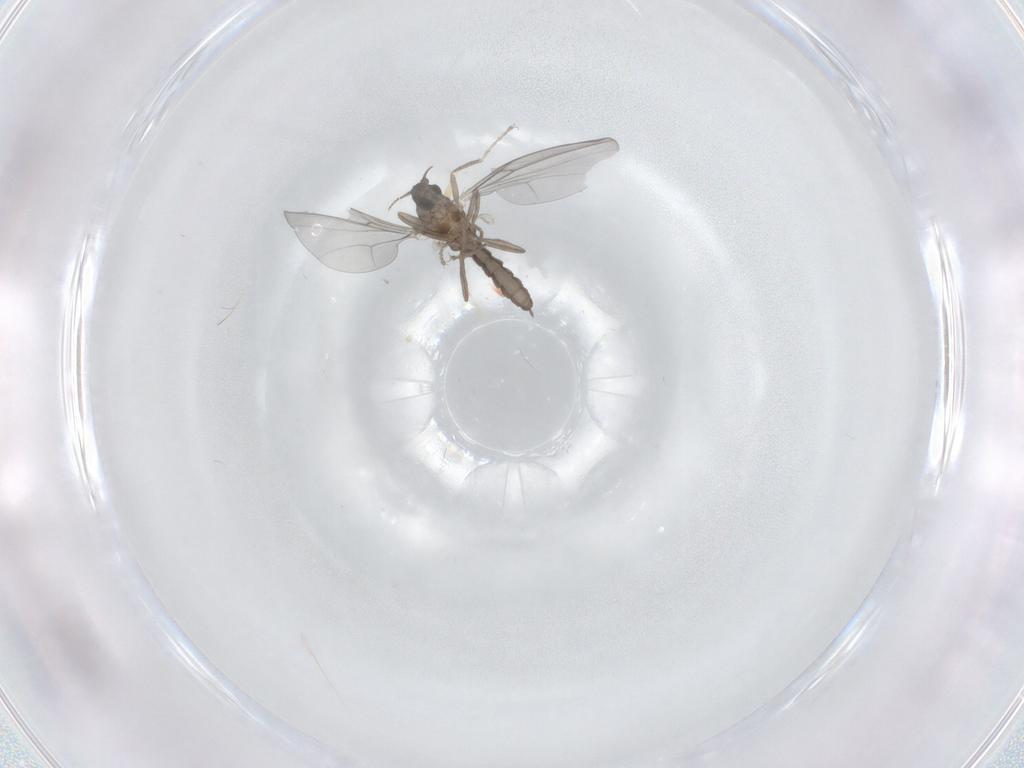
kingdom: Animalia
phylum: Arthropoda
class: Insecta
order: Diptera
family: Cecidomyiidae
